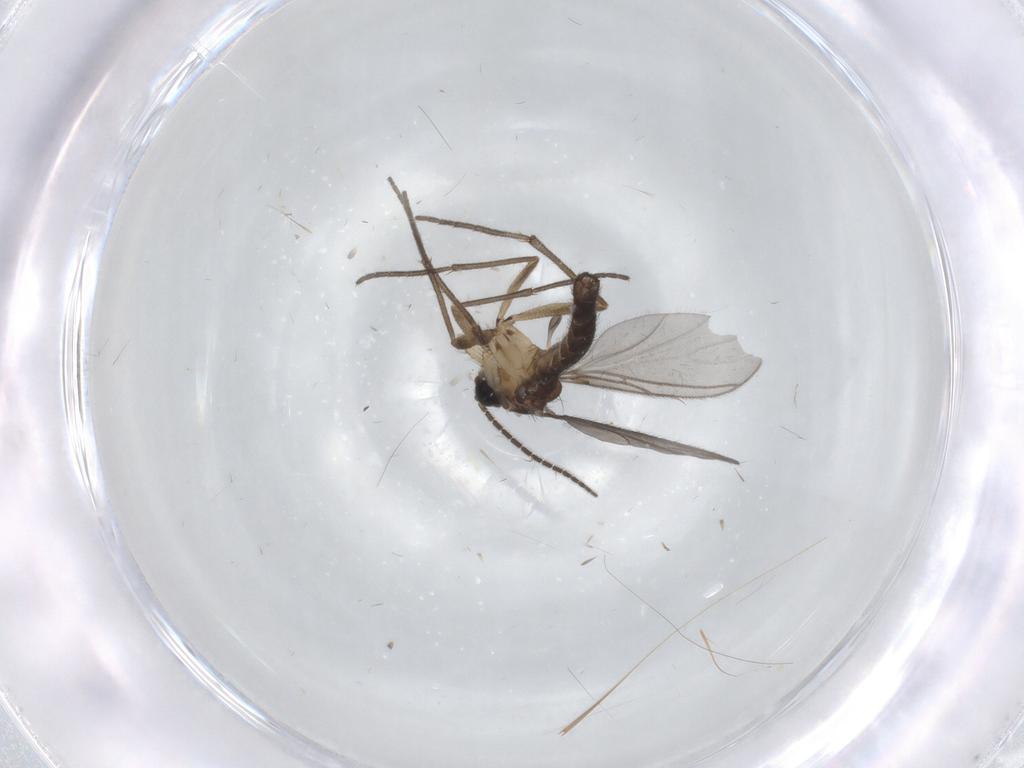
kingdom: Animalia
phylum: Arthropoda
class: Insecta
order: Diptera
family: Sciaridae
